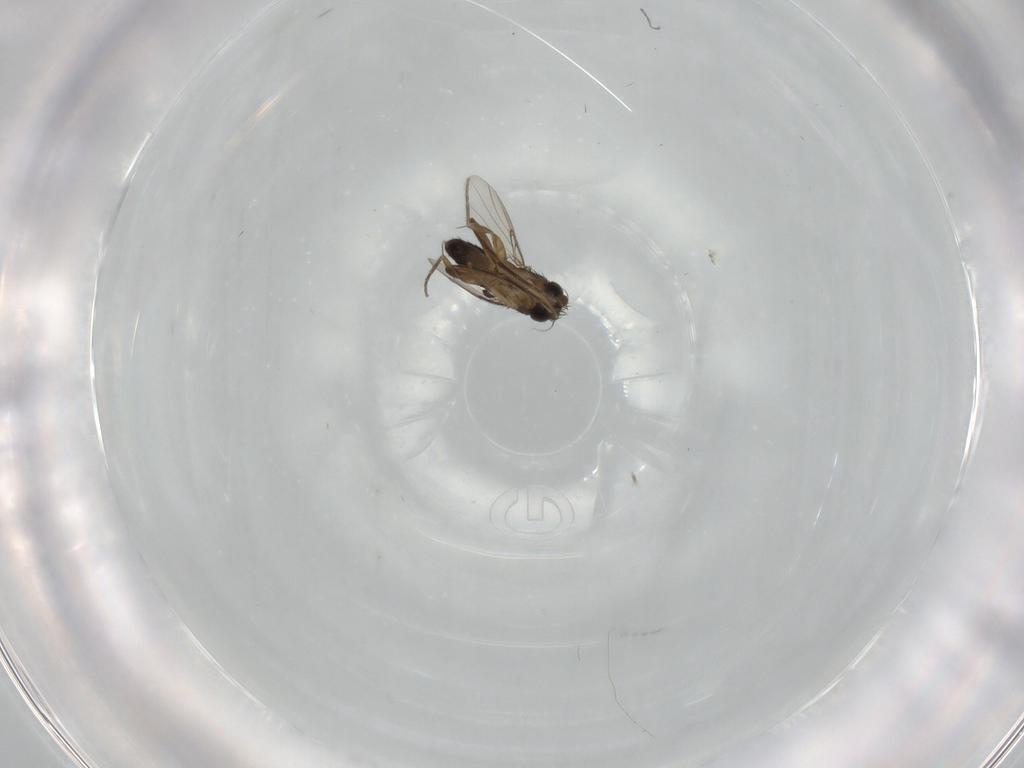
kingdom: Animalia
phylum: Arthropoda
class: Insecta
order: Diptera
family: Phoridae
